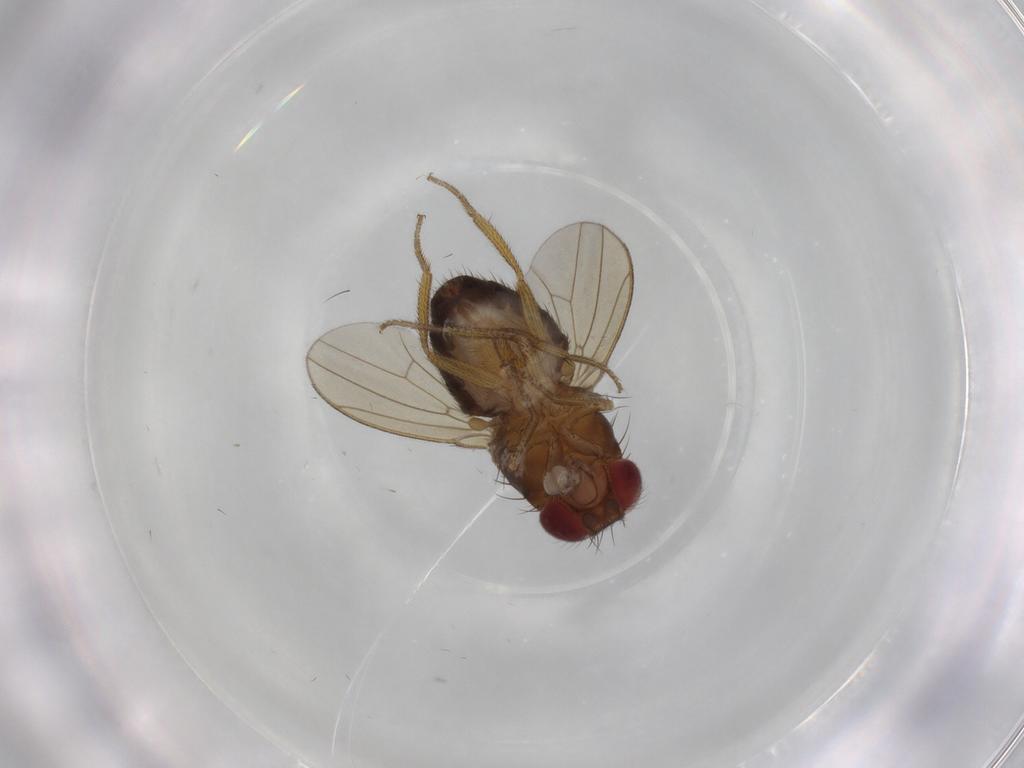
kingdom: Animalia
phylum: Arthropoda
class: Insecta
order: Diptera
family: Drosophilidae
